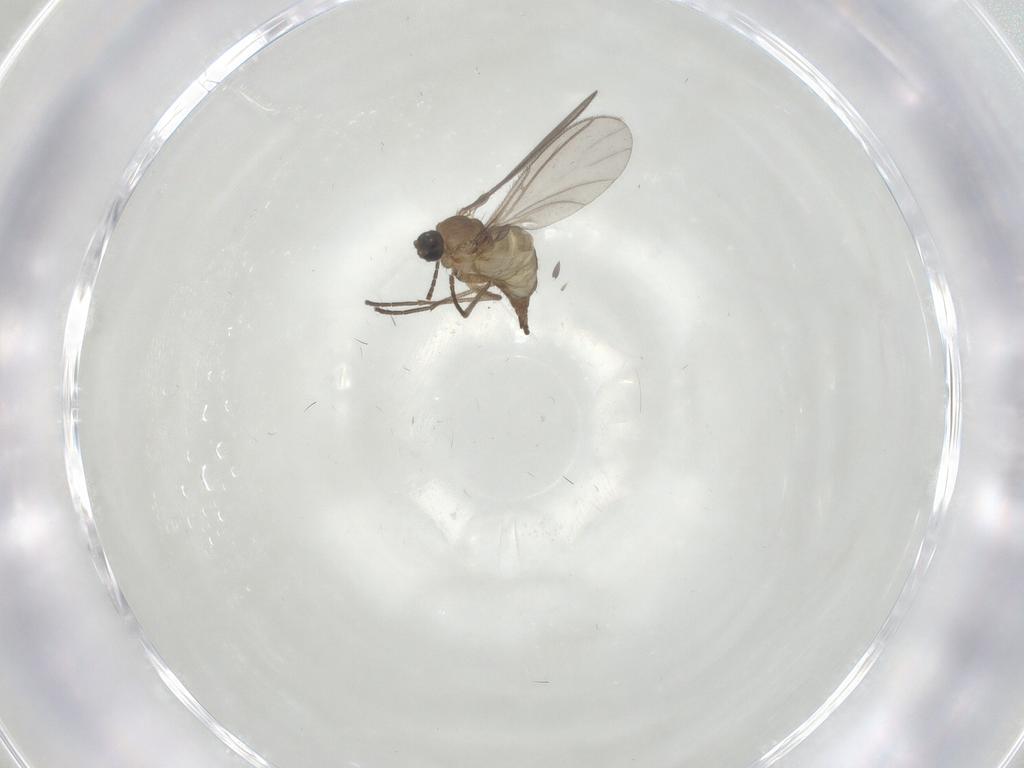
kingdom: Animalia
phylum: Arthropoda
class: Insecta
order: Diptera
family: Sciaridae
